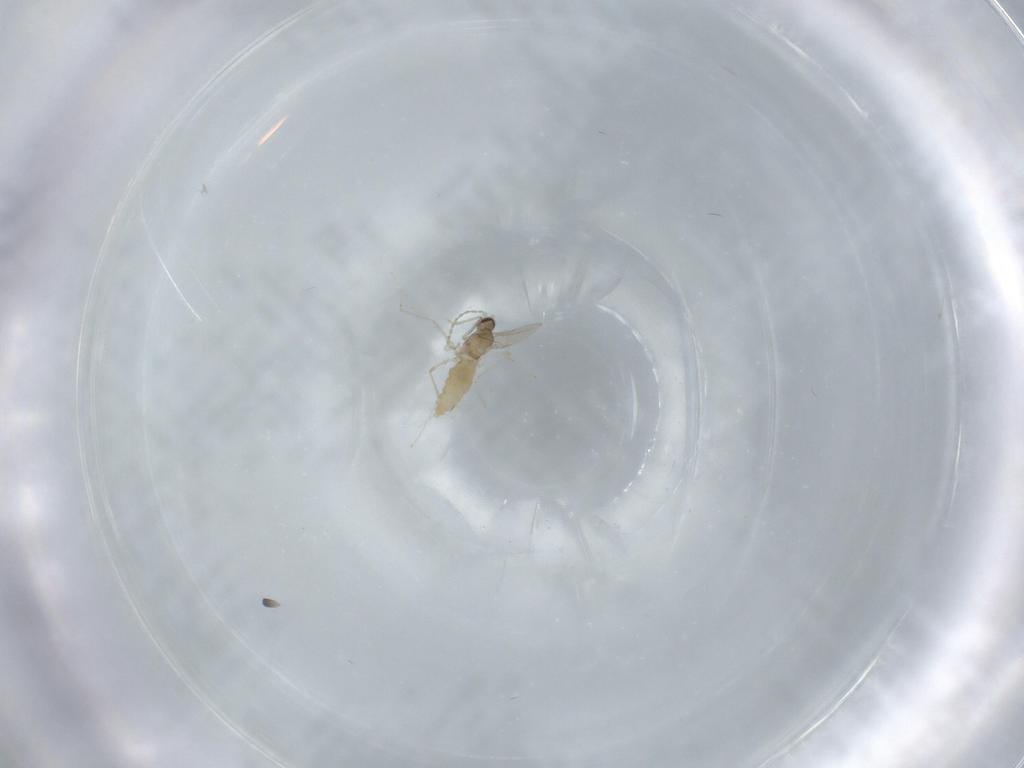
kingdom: Animalia
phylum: Arthropoda
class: Insecta
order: Diptera
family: Cecidomyiidae
